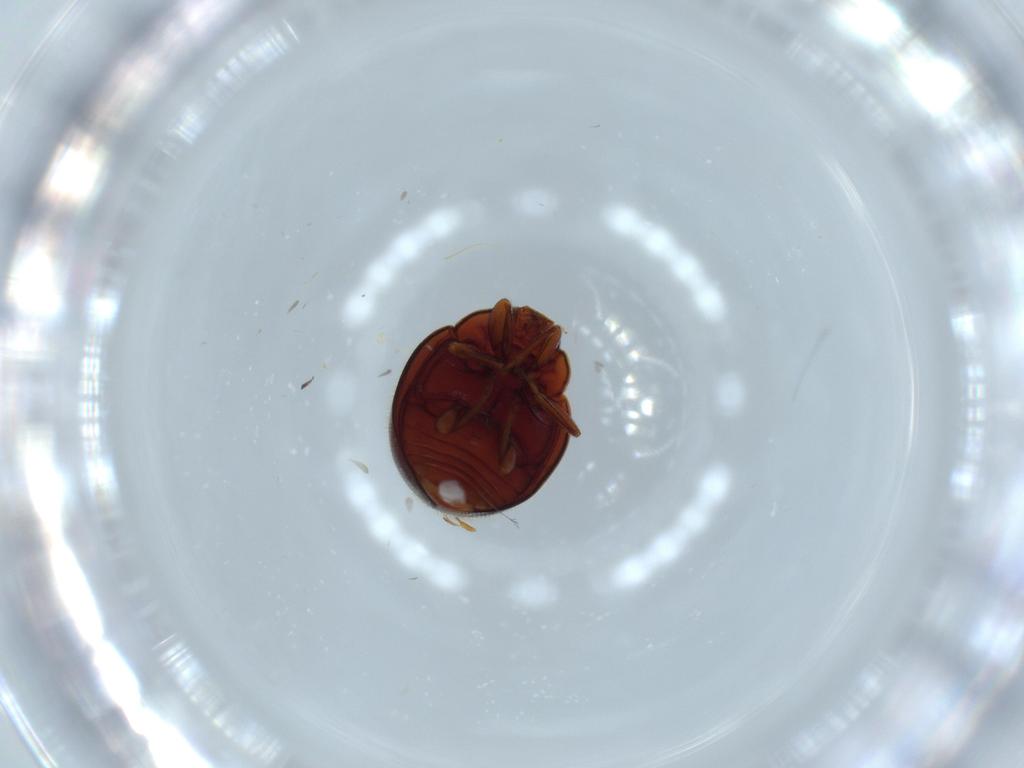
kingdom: Animalia
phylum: Arthropoda
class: Insecta
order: Coleoptera
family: Coccinellidae
